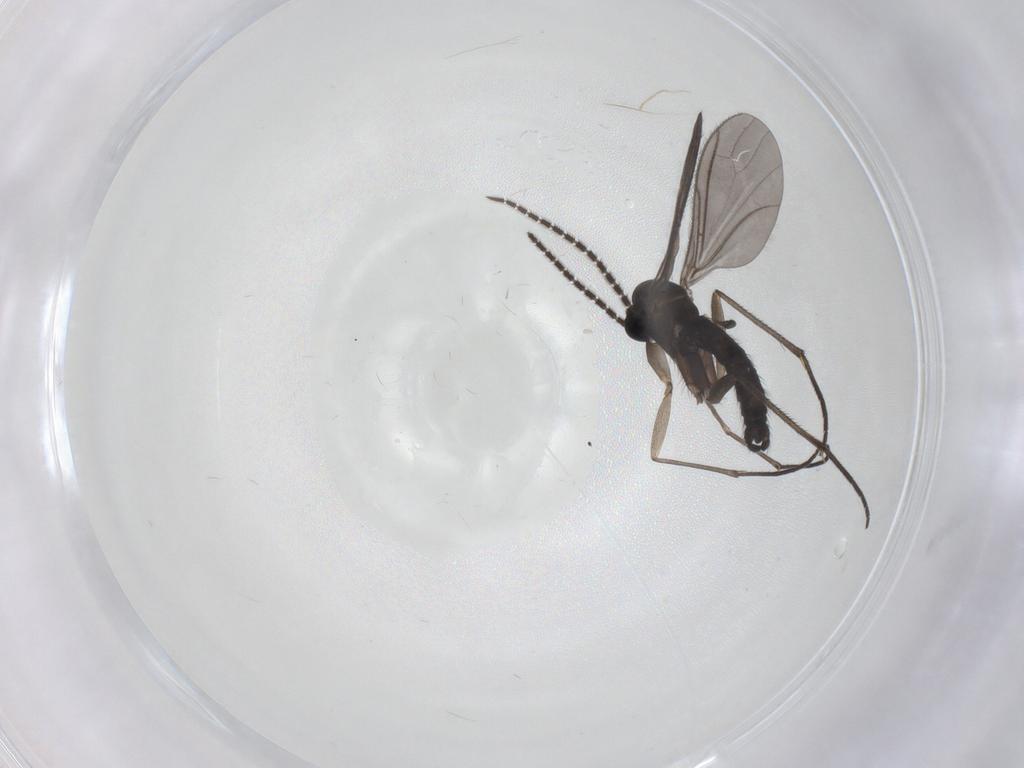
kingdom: Animalia
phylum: Arthropoda
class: Insecta
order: Diptera
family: Sciaridae
